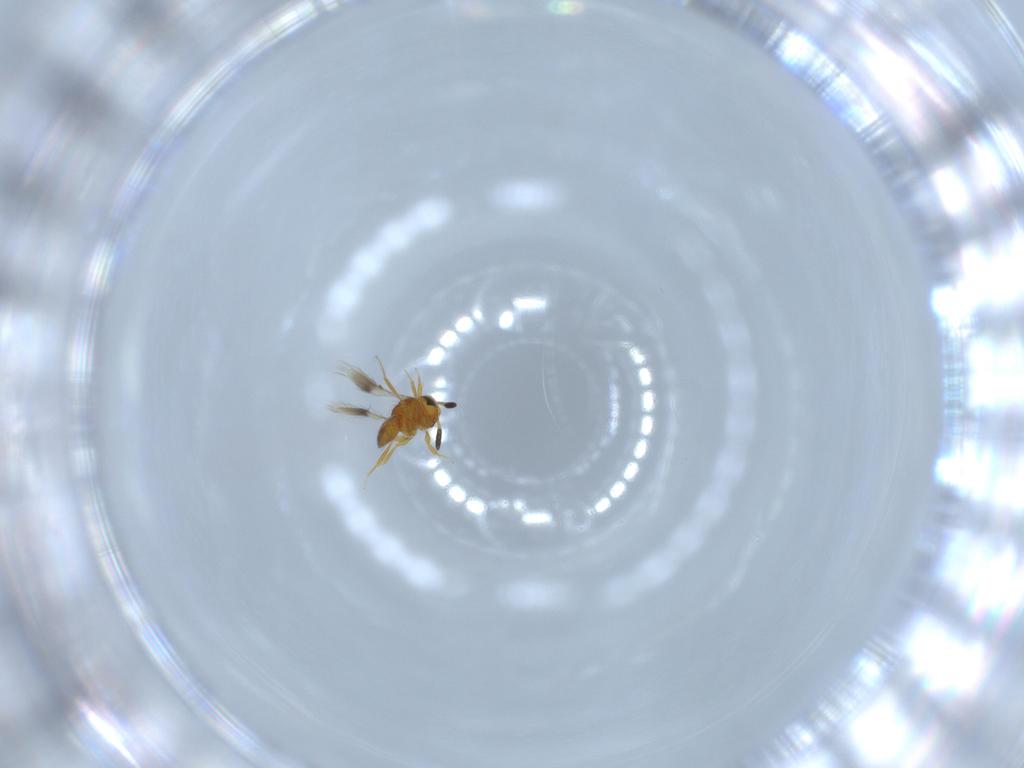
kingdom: Animalia
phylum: Arthropoda
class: Insecta
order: Hymenoptera
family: Scelionidae
